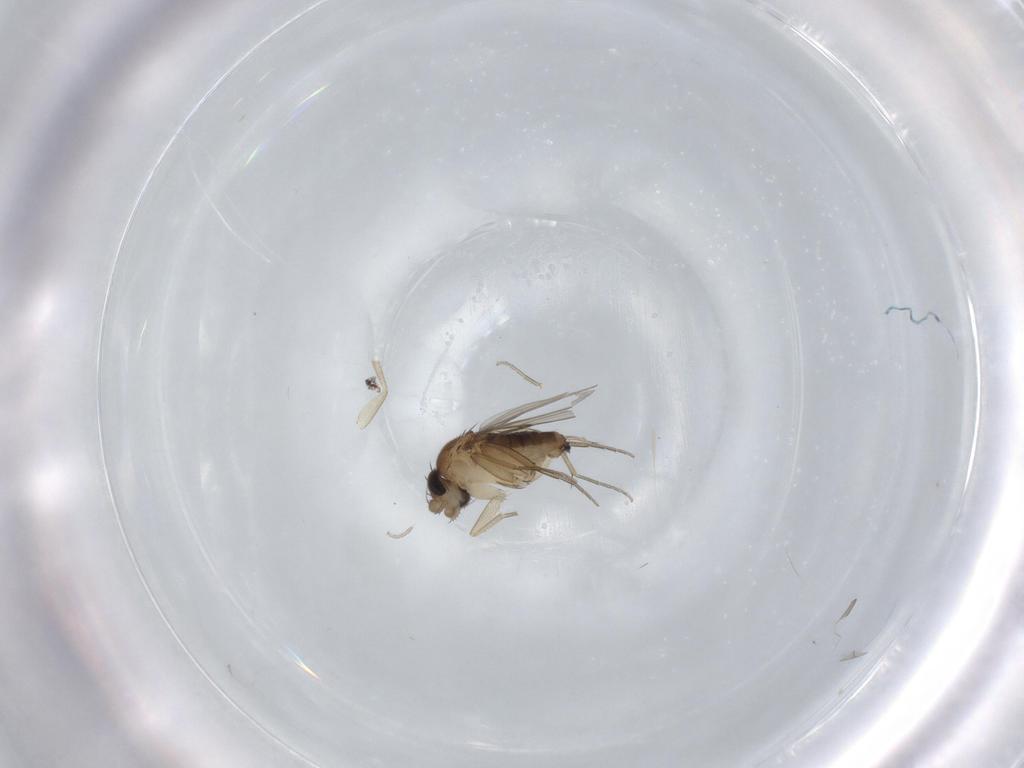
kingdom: Animalia
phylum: Arthropoda
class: Insecta
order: Diptera
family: Phoridae
